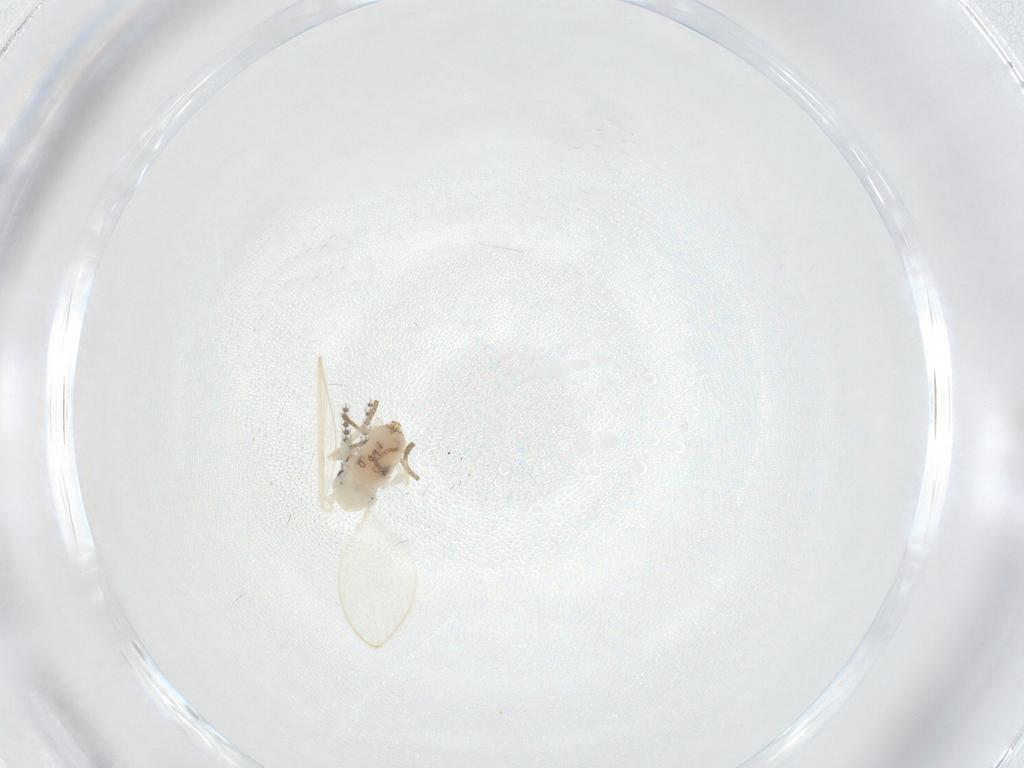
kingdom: Animalia
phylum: Arthropoda
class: Insecta
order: Diptera
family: Psychodidae
